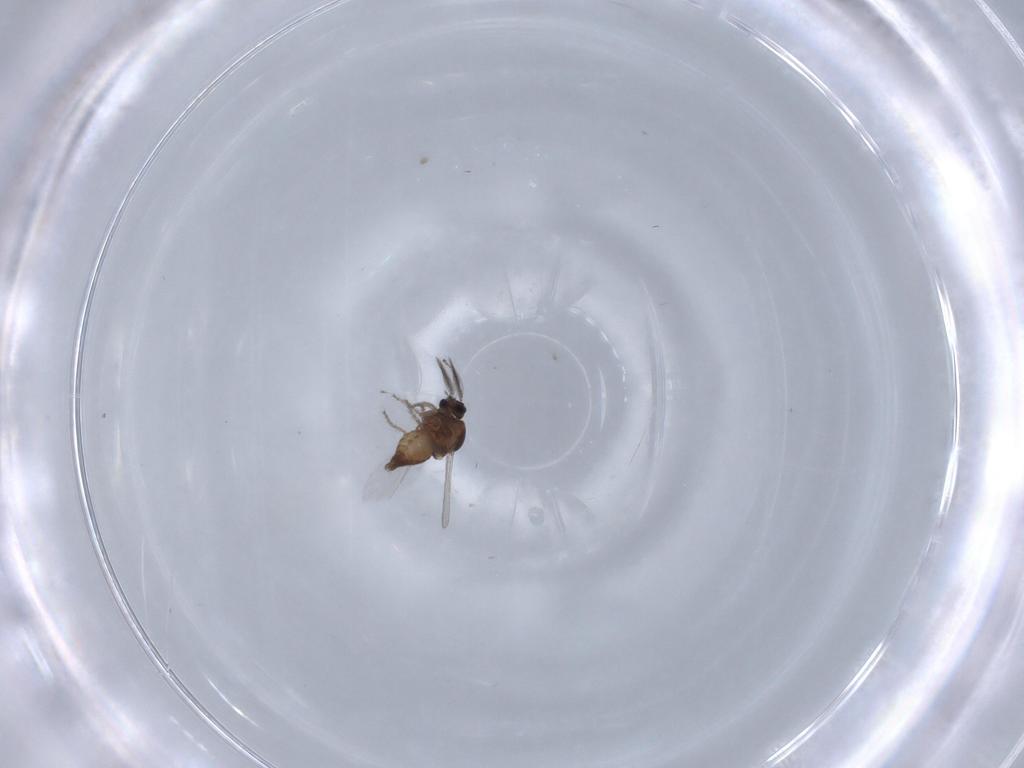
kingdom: Animalia
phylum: Arthropoda
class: Insecta
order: Diptera
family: Ceratopogonidae
